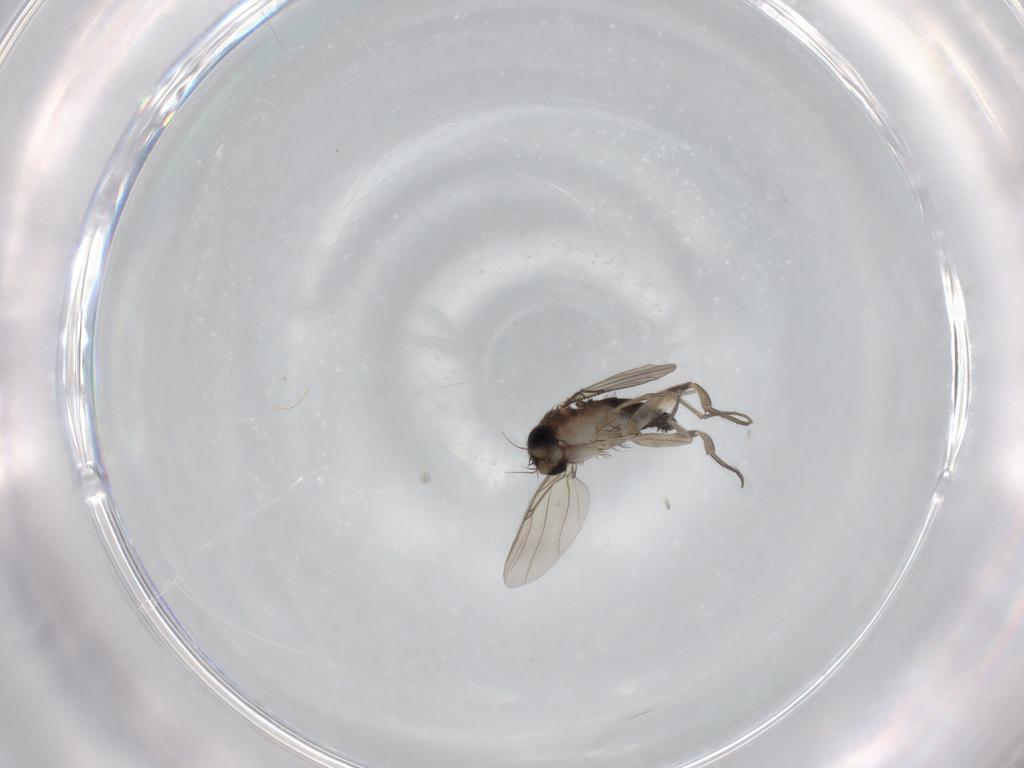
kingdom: Animalia
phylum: Arthropoda
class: Insecta
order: Diptera
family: Phoridae
